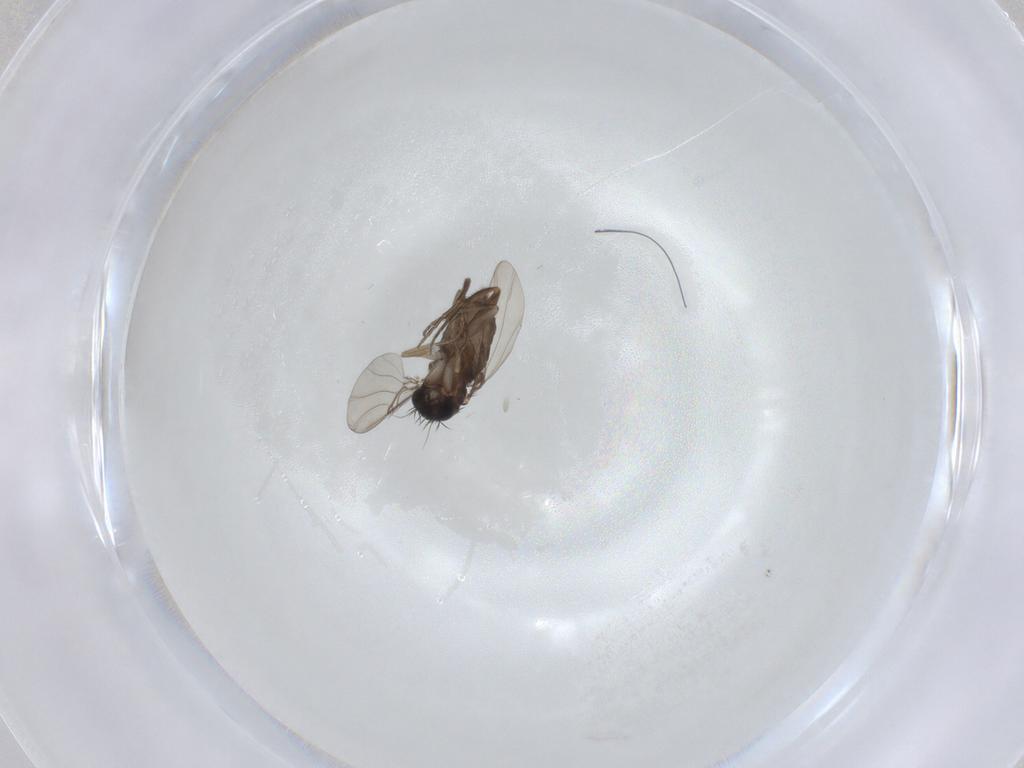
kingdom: Animalia
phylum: Arthropoda
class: Insecta
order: Diptera
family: Phoridae
